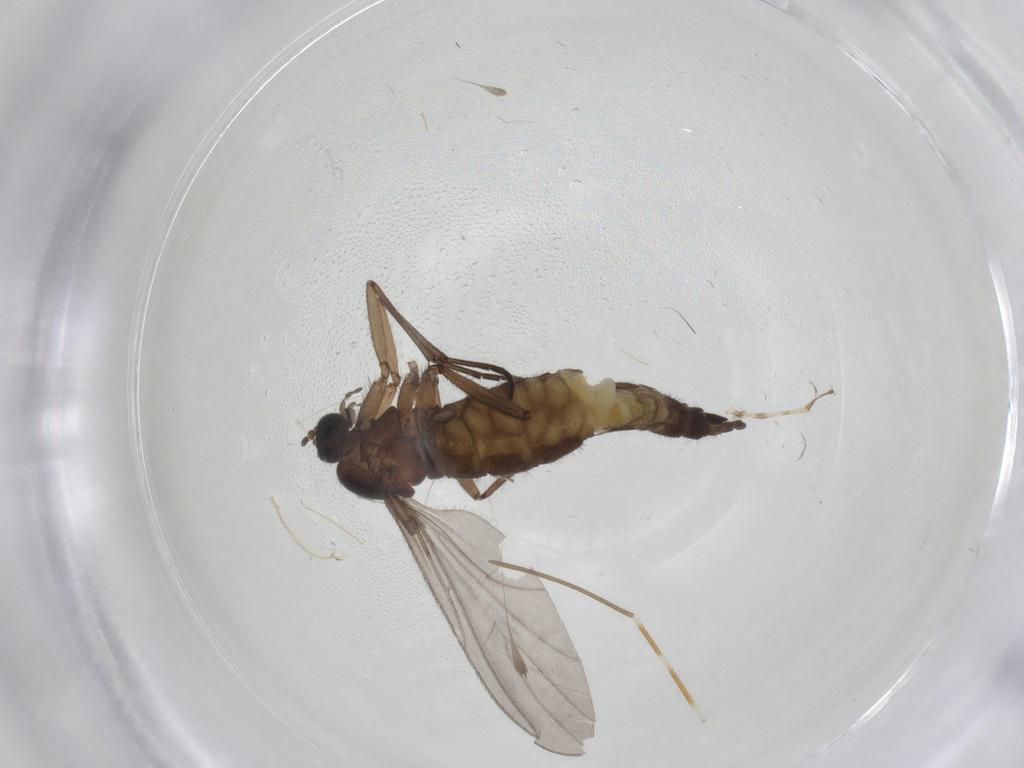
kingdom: Animalia
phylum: Arthropoda
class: Insecta
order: Diptera
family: Sciaridae
